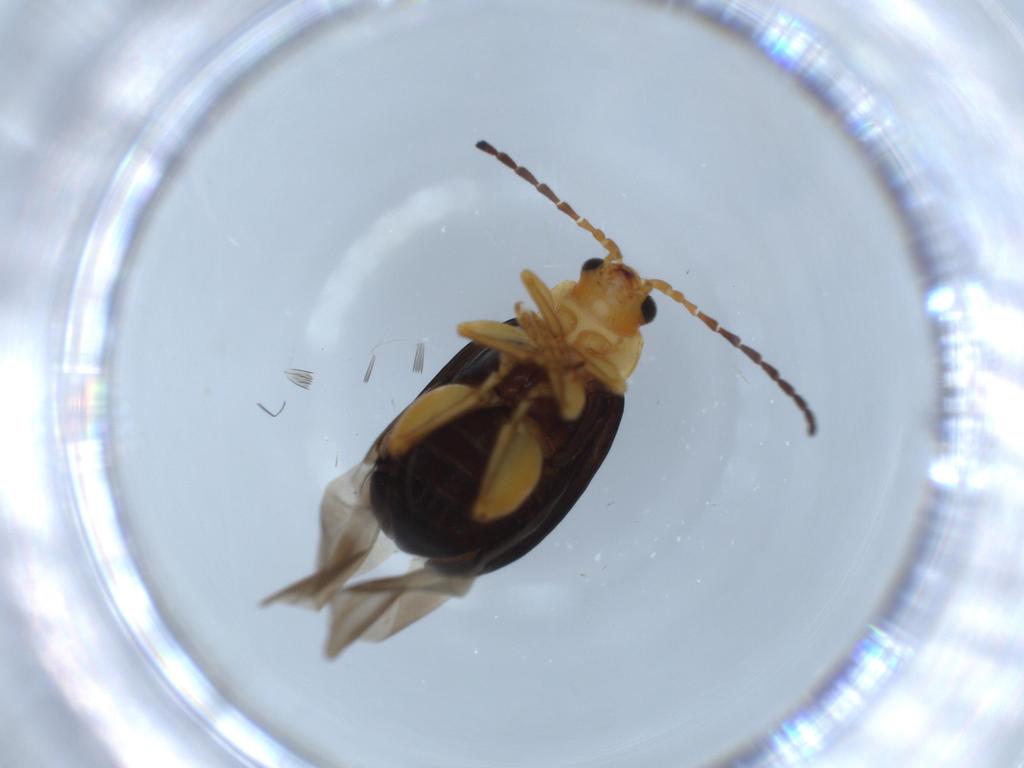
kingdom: Animalia
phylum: Arthropoda
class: Insecta
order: Coleoptera
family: Chrysomelidae
